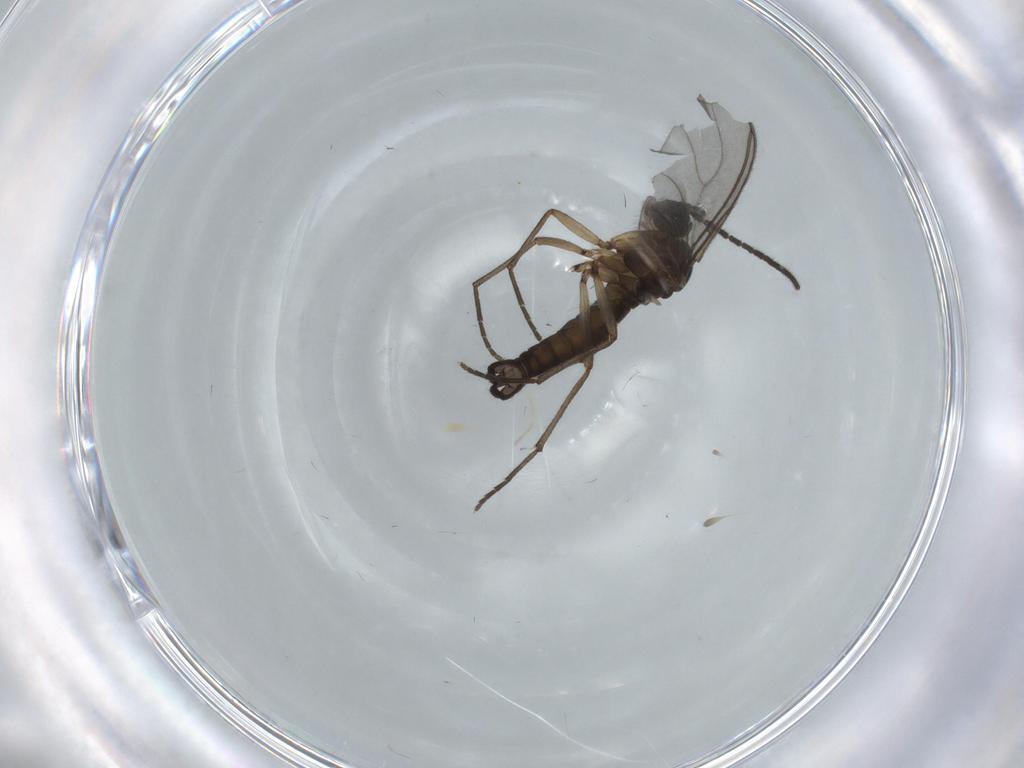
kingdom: Animalia
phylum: Arthropoda
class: Insecta
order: Diptera
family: Sciaridae
